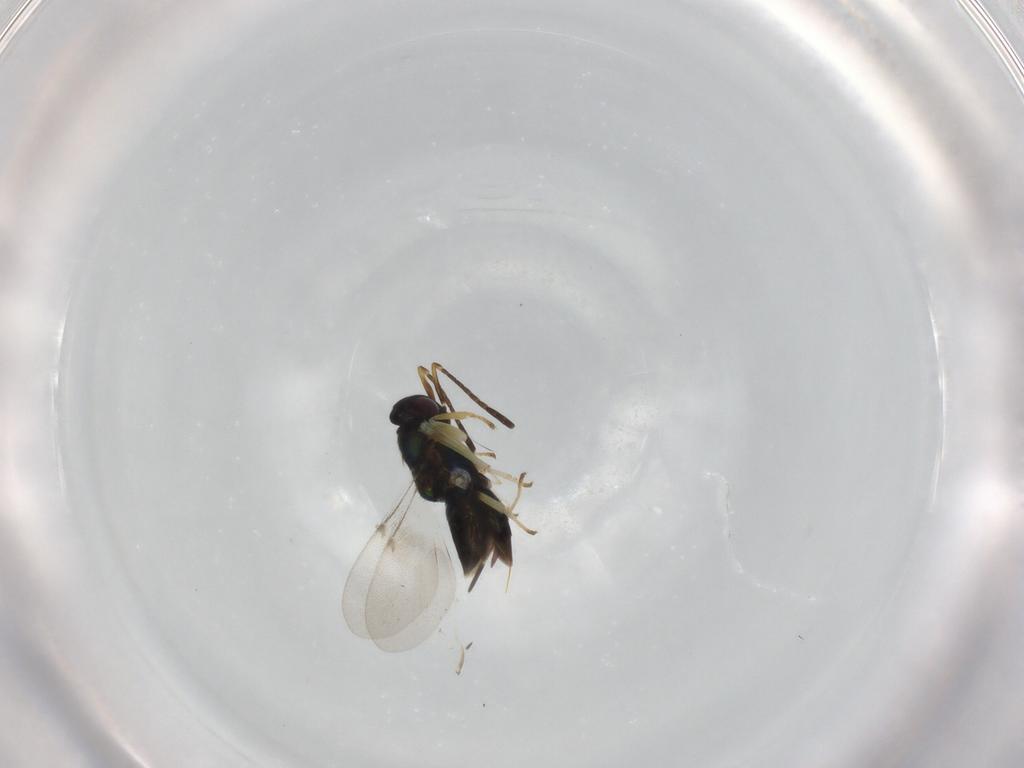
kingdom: Animalia
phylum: Arthropoda
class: Insecta
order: Hymenoptera
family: Encyrtidae
